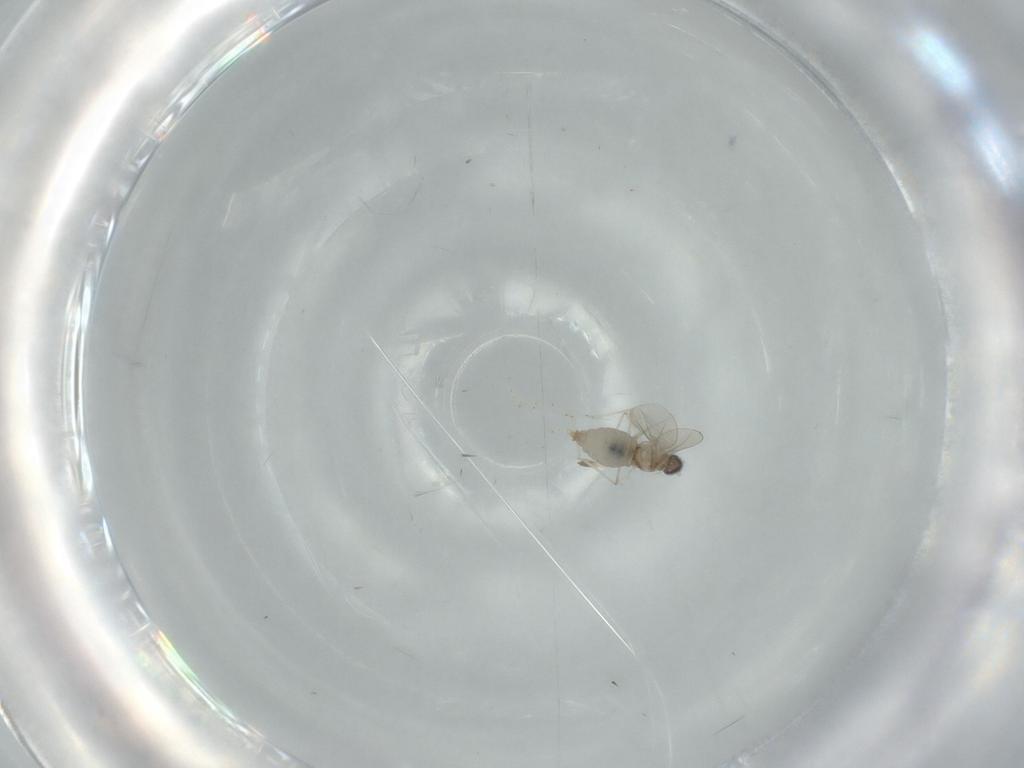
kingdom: Animalia
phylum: Arthropoda
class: Insecta
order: Diptera
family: Cecidomyiidae
